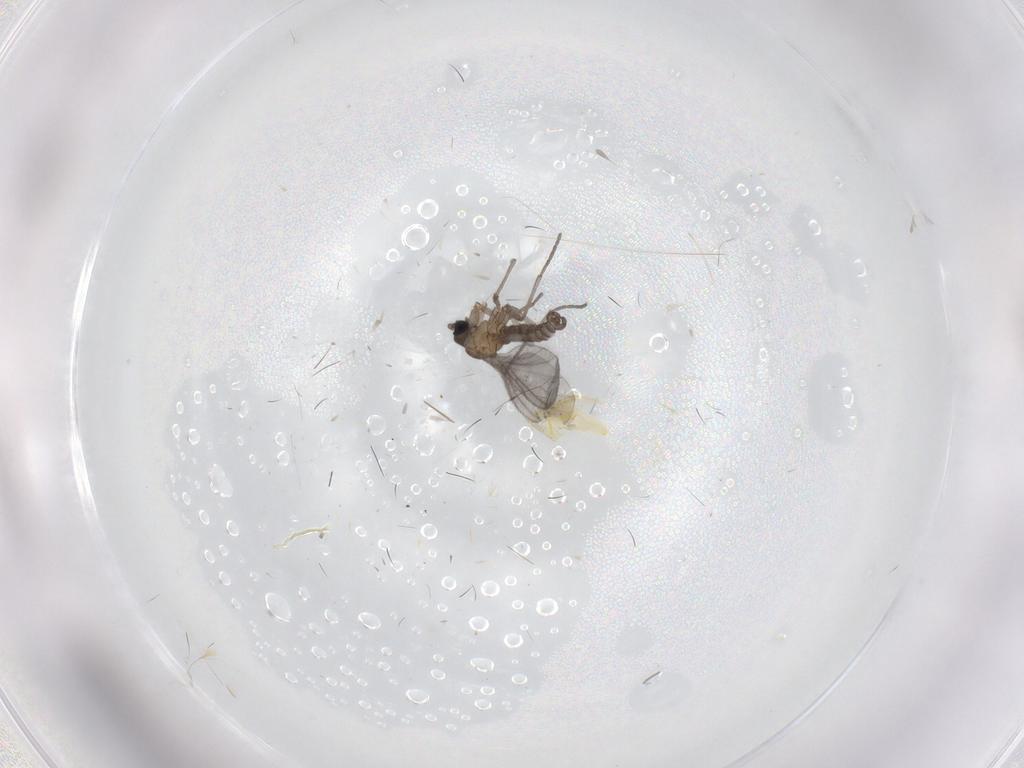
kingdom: Animalia
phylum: Arthropoda
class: Insecta
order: Diptera
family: Sciaridae
